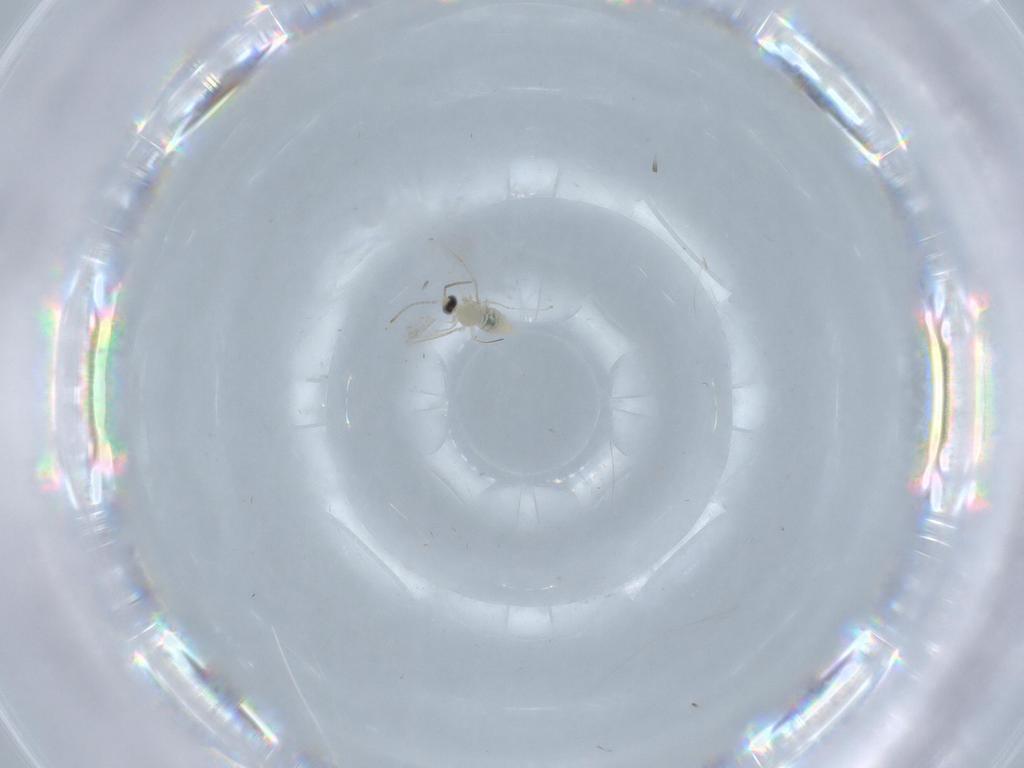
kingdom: Animalia
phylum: Arthropoda
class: Insecta
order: Diptera
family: Cecidomyiidae
